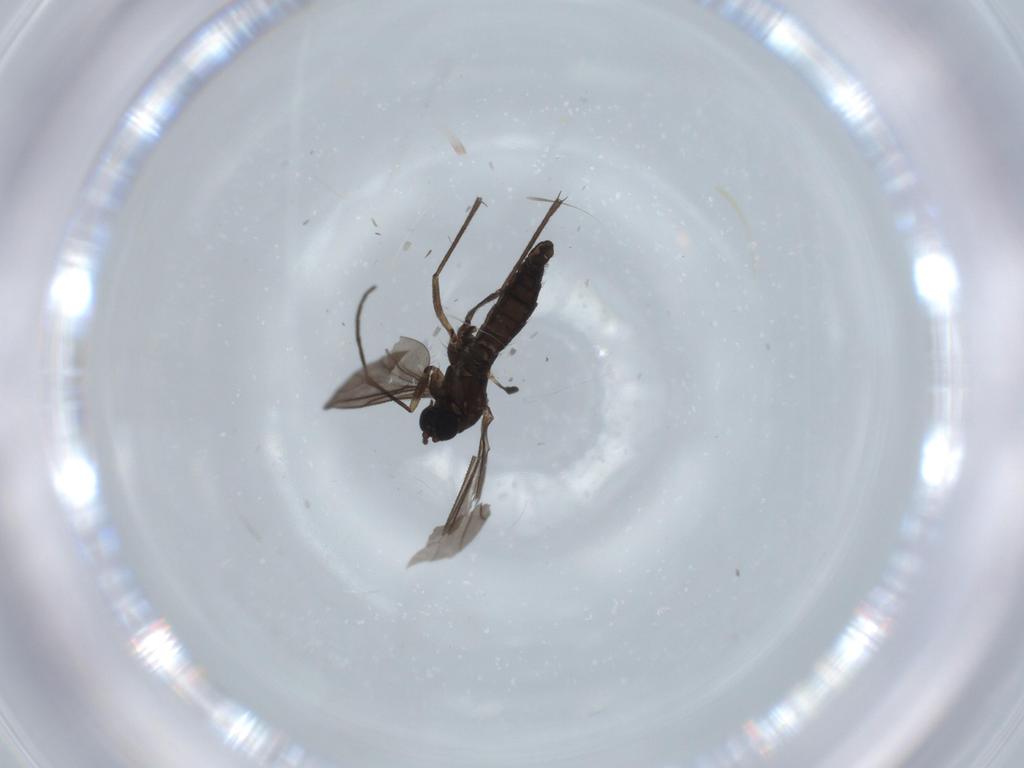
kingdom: Animalia
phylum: Arthropoda
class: Insecta
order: Diptera
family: Sciaridae
